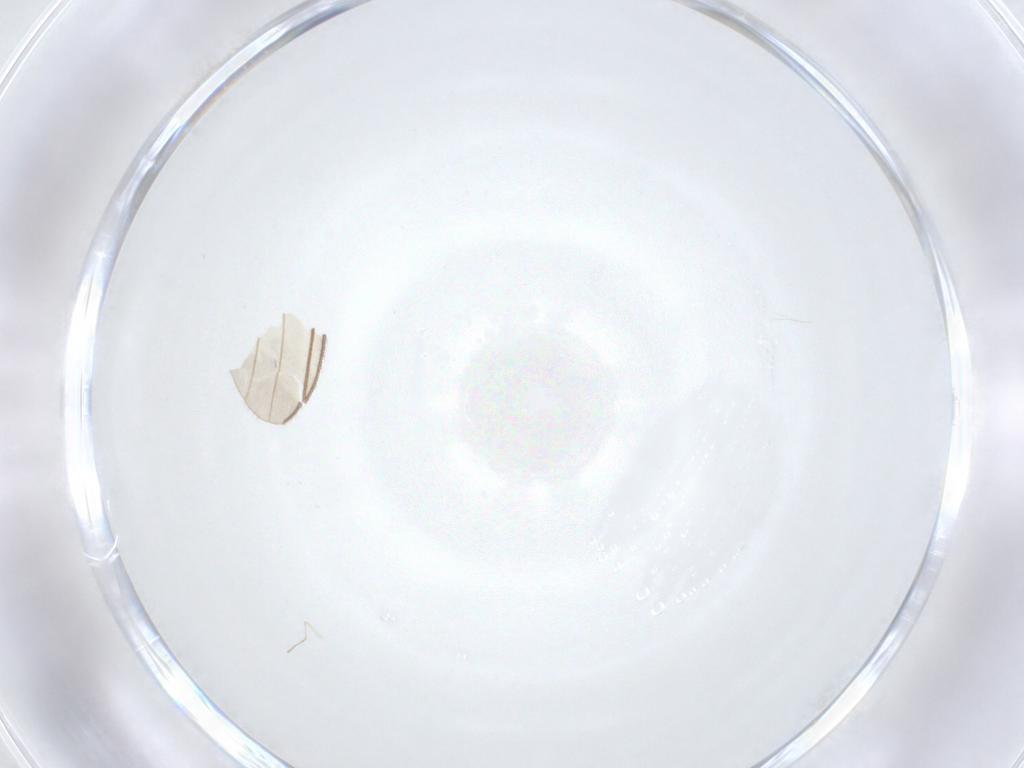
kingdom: Animalia
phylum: Arthropoda
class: Insecta
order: Diptera
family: Sciaridae
